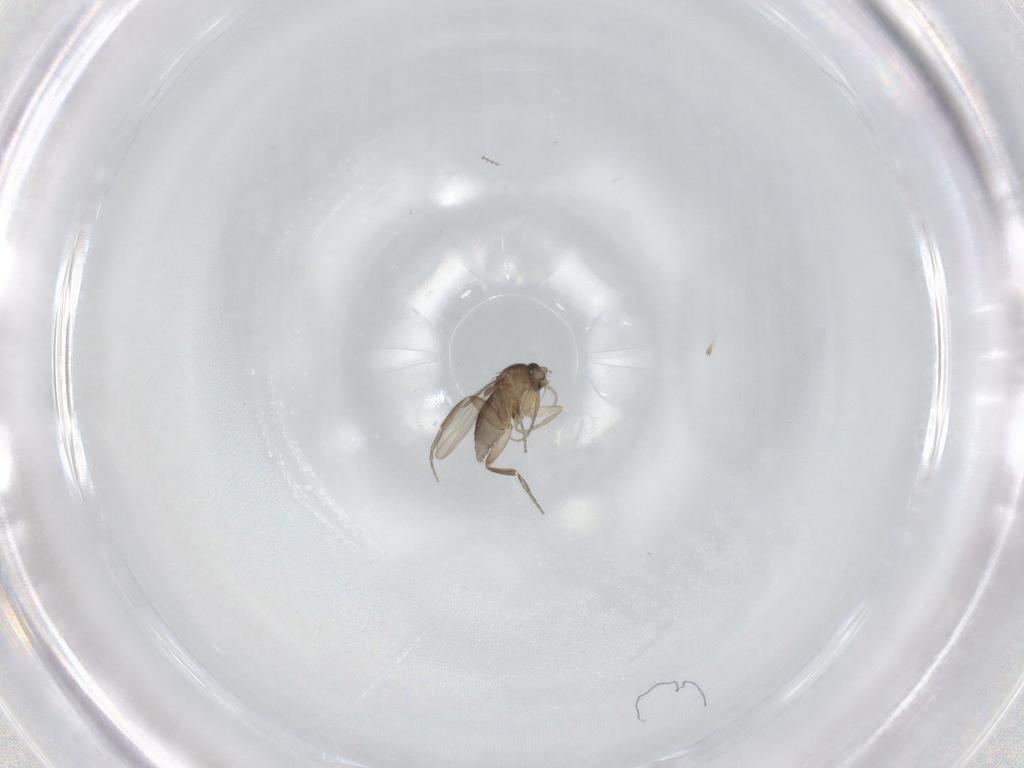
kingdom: Animalia
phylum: Arthropoda
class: Insecta
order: Diptera
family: Phoridae
